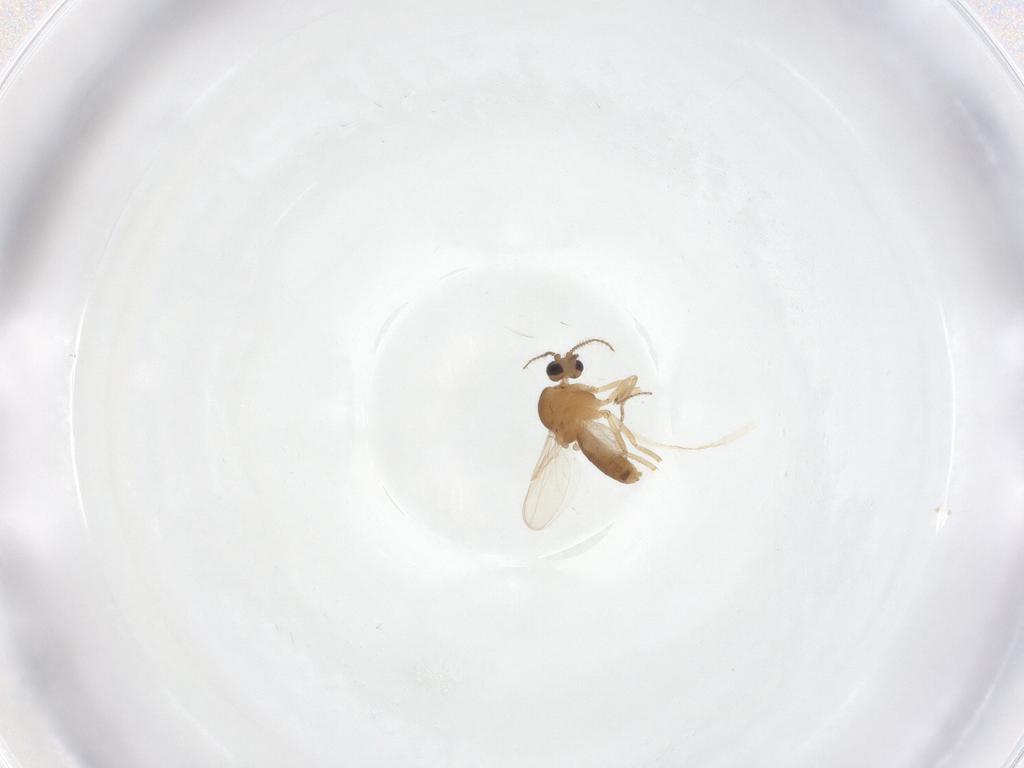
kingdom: Animalia
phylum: Arthropoda
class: Insecta
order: Diptera
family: Ceratopogonidae
